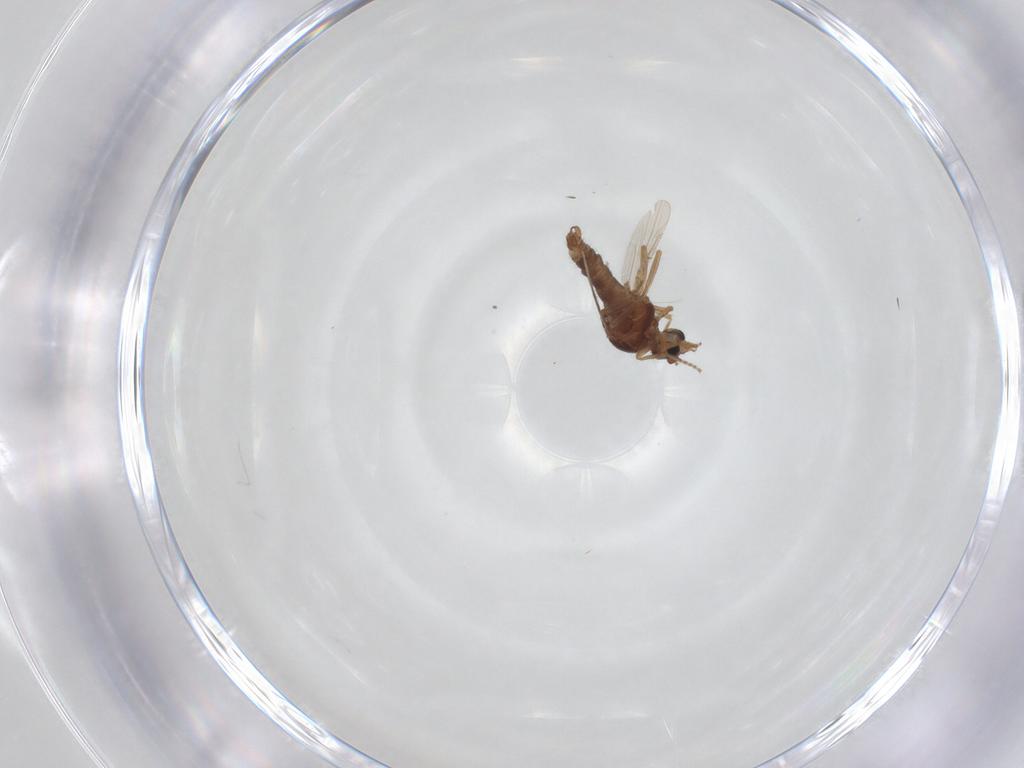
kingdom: Animalia
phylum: Arthropoda
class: Insecta
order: Diptera
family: Ceratopogonidae
